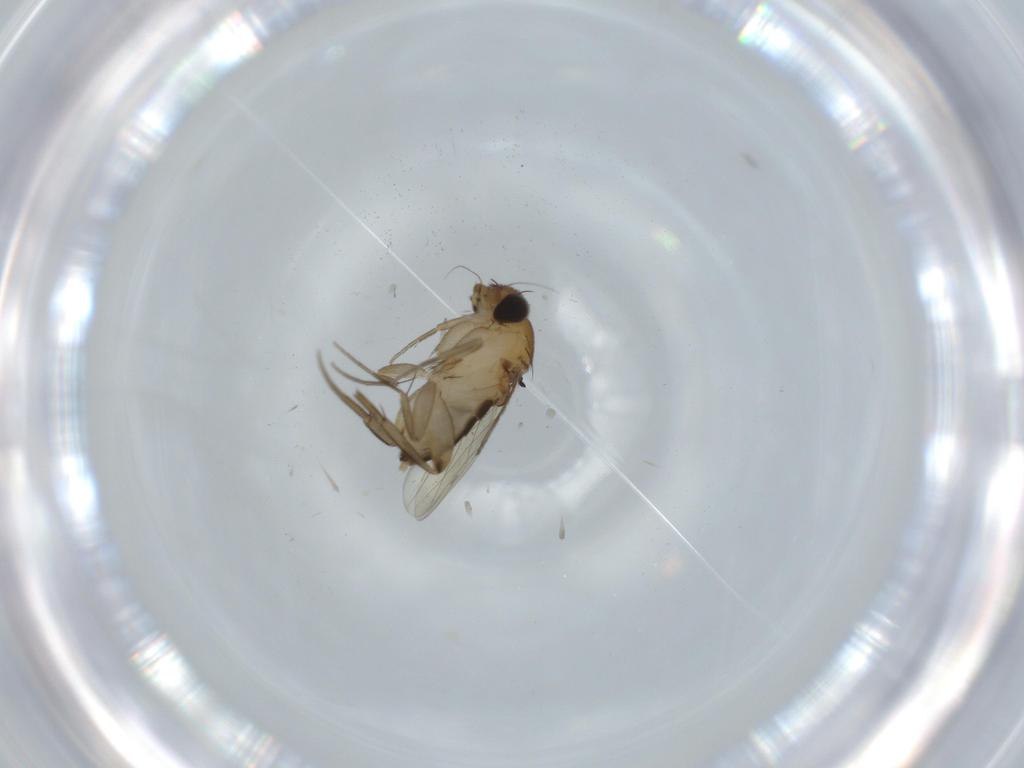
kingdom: Animalia
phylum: Arthropoda
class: Insecta
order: Diptera
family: Phoridae
